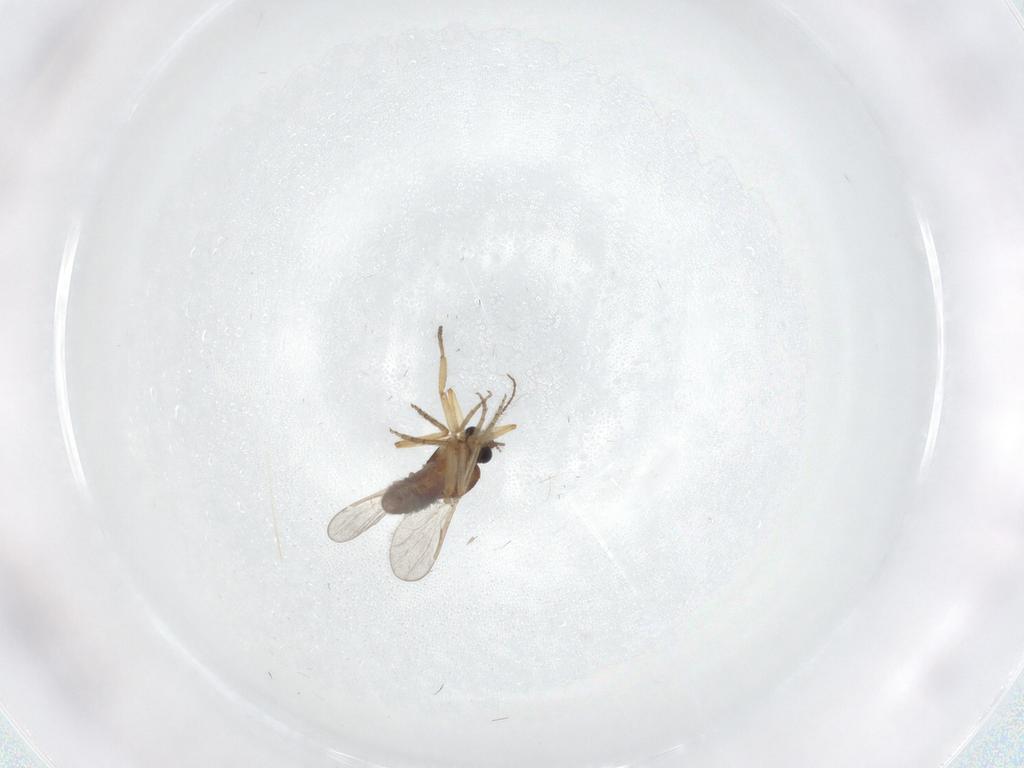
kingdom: Animalia
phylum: Arthropoda
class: Insecta
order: Diptera
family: Ceratopogonidae
